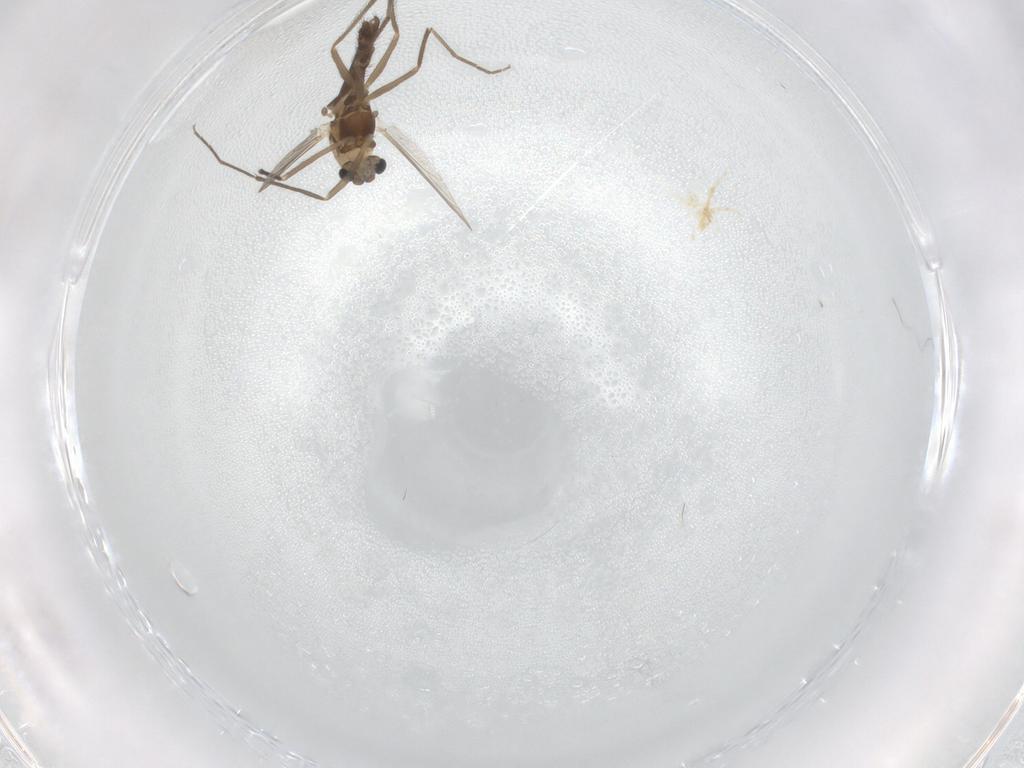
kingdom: Animalia
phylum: Arthropoda
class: Insecta
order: Diptera
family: Chironomidae
